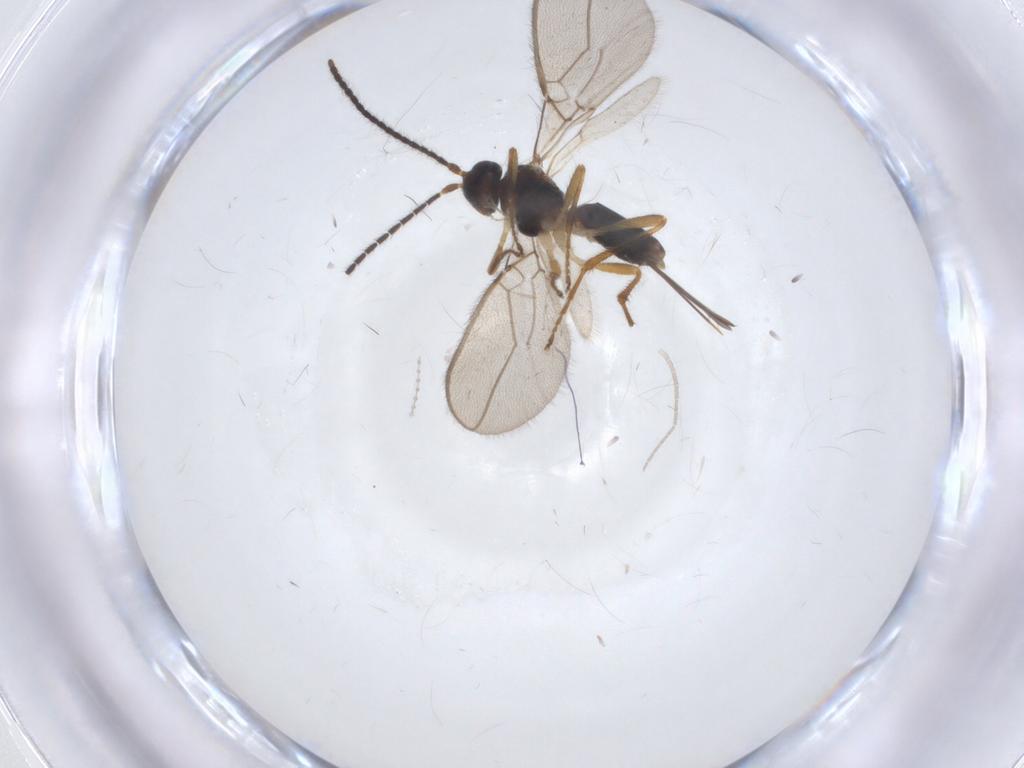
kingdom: Animalia
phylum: Arthropoda
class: Insecta
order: Hymenoptera
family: Braconidae
